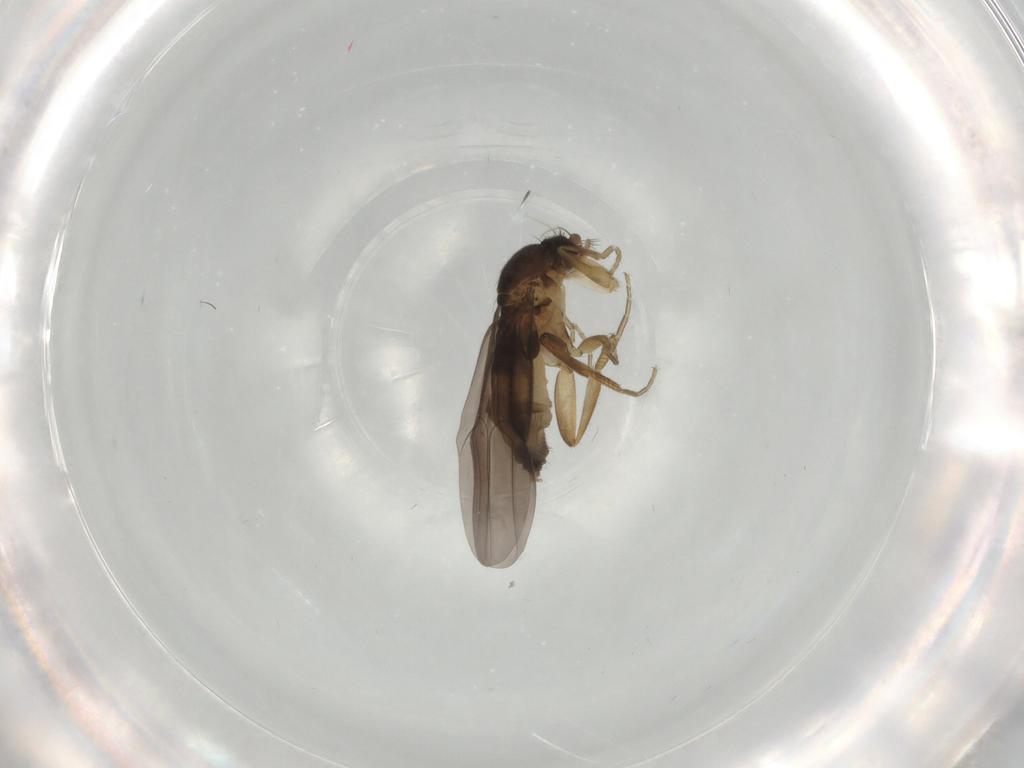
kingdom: Animalia
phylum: Arthropoda
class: Insecta
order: Diptera
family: Phoridae
